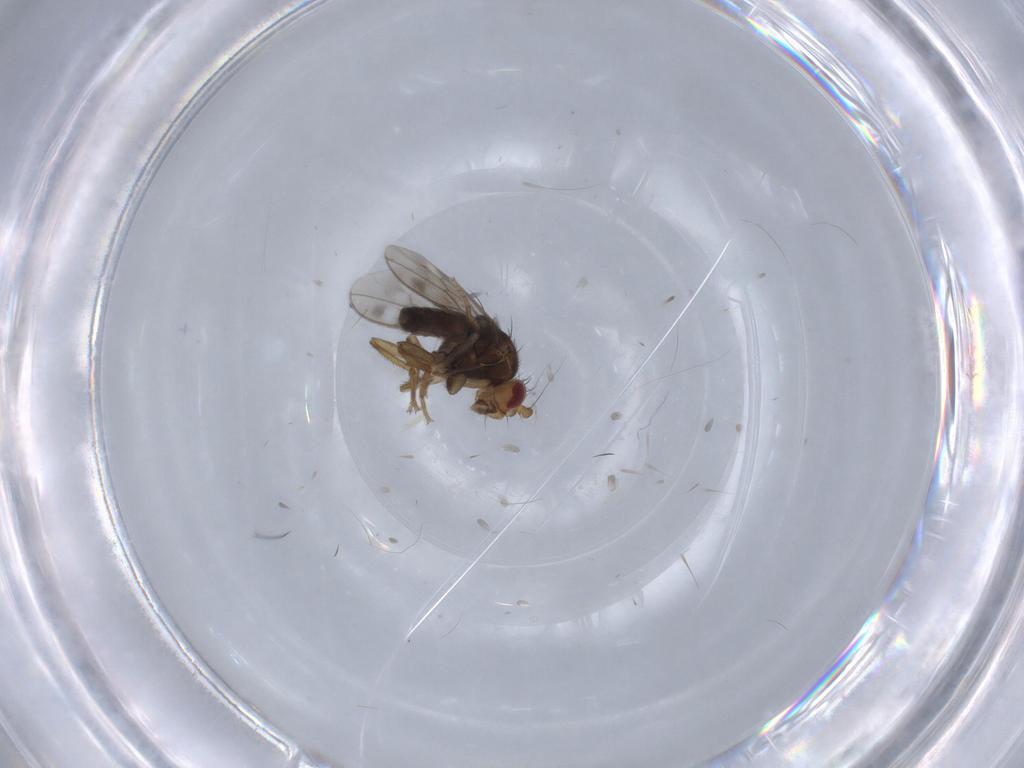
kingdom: Animalia
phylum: Arthropoda
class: Insecta
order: Diptera
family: Sphaeroceridae
